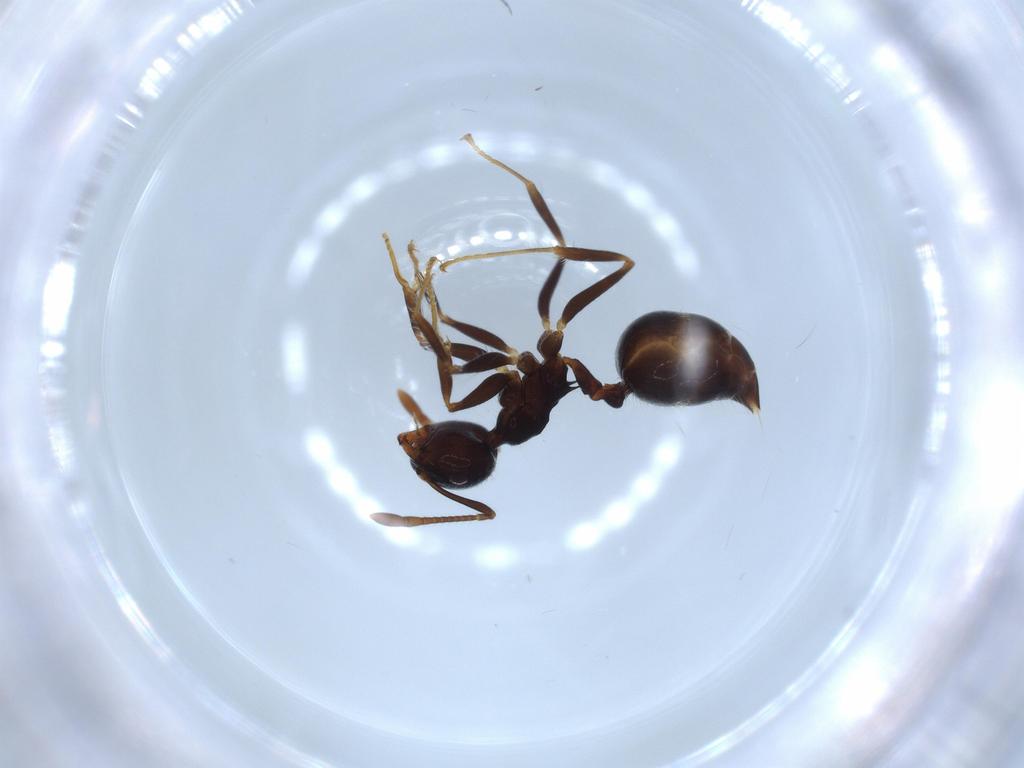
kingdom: Animalia
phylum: Arthropoda
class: Insecta
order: Hymenoptera
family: Formicidae
